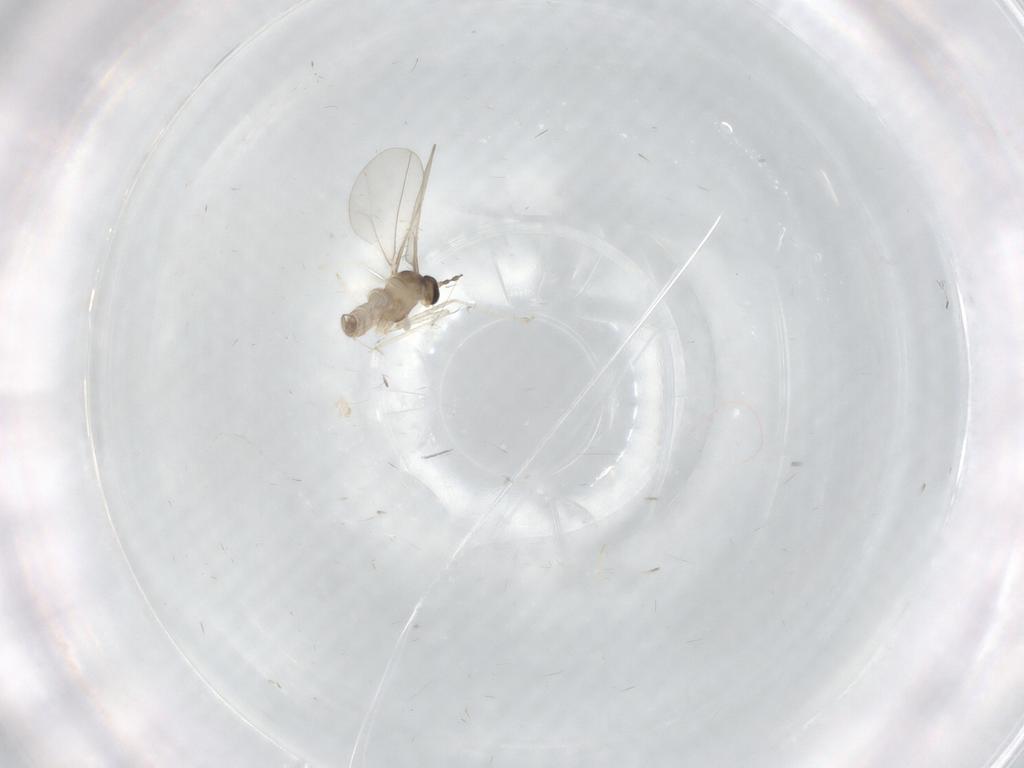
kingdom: Animalia
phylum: Arthropoda
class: Insecta
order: Diptera
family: Cecidomyiidae
